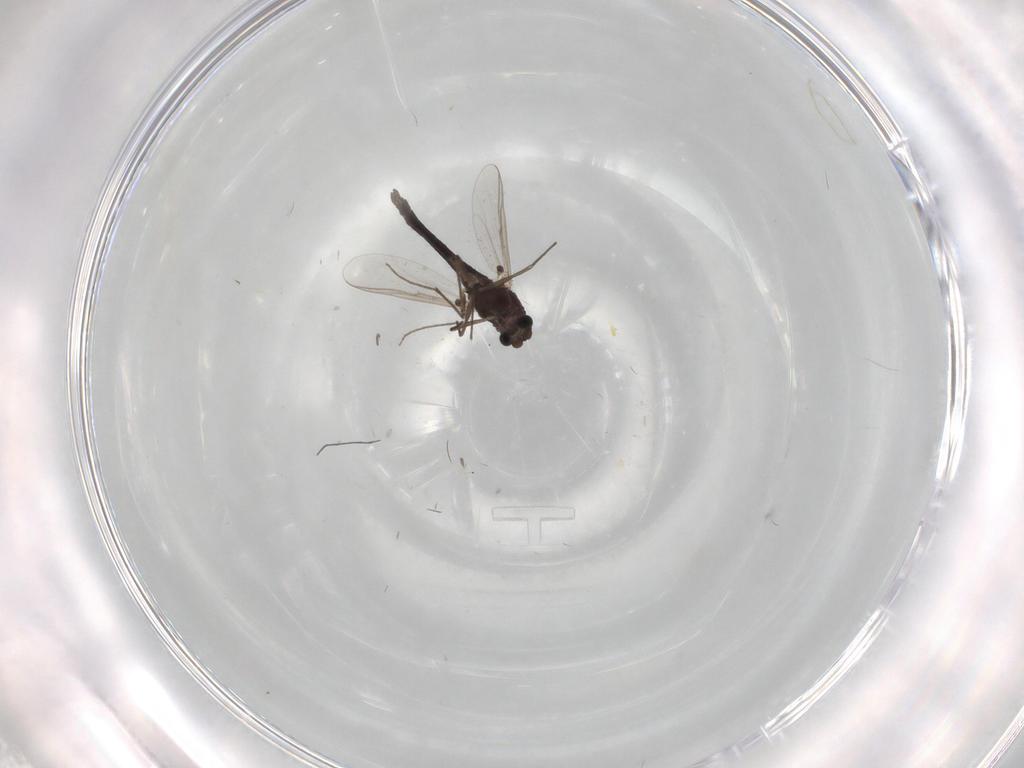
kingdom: Animalia
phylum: Arthropoda
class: Insecta
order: Diptera
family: Chironomidae
